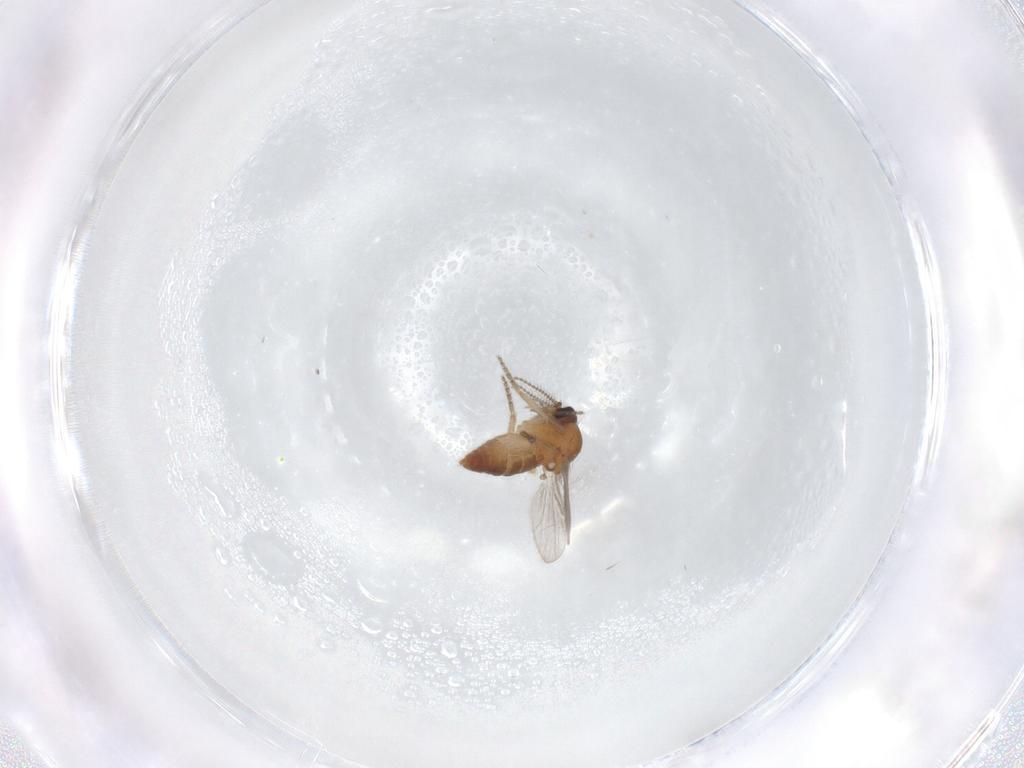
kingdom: Animalia
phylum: Arthropoda
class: Insecta
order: Diptera
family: Ceratopogonidae
